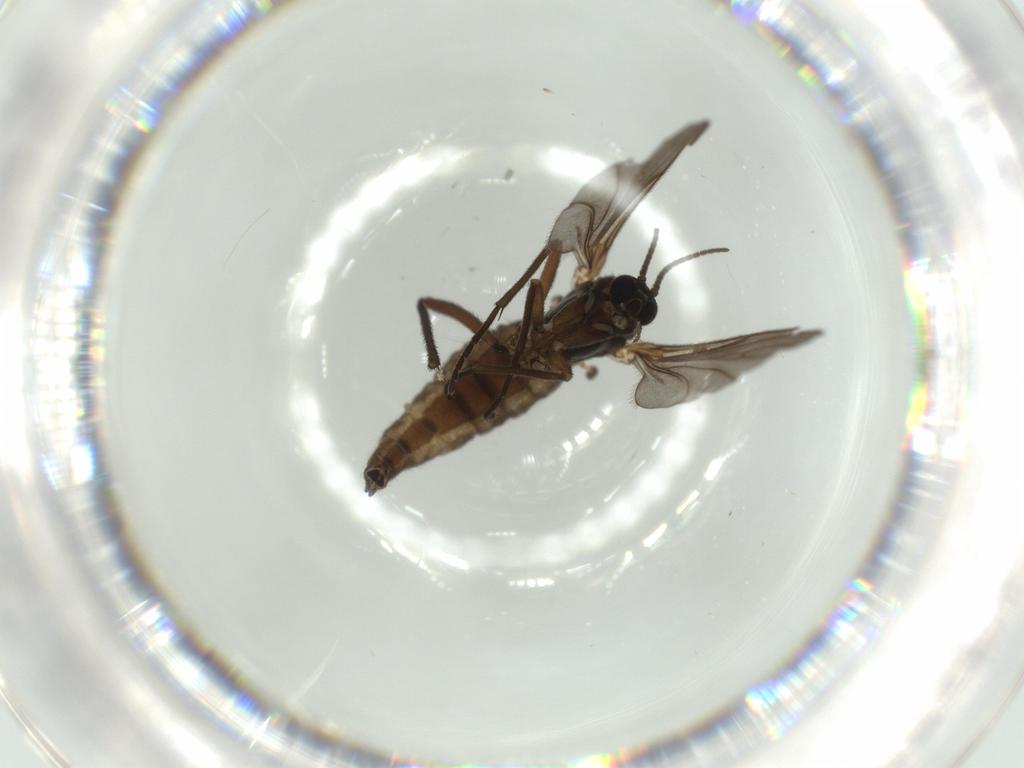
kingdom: Animalia
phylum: Arthropoda
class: Insecta
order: Diptera
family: Sciaridae
